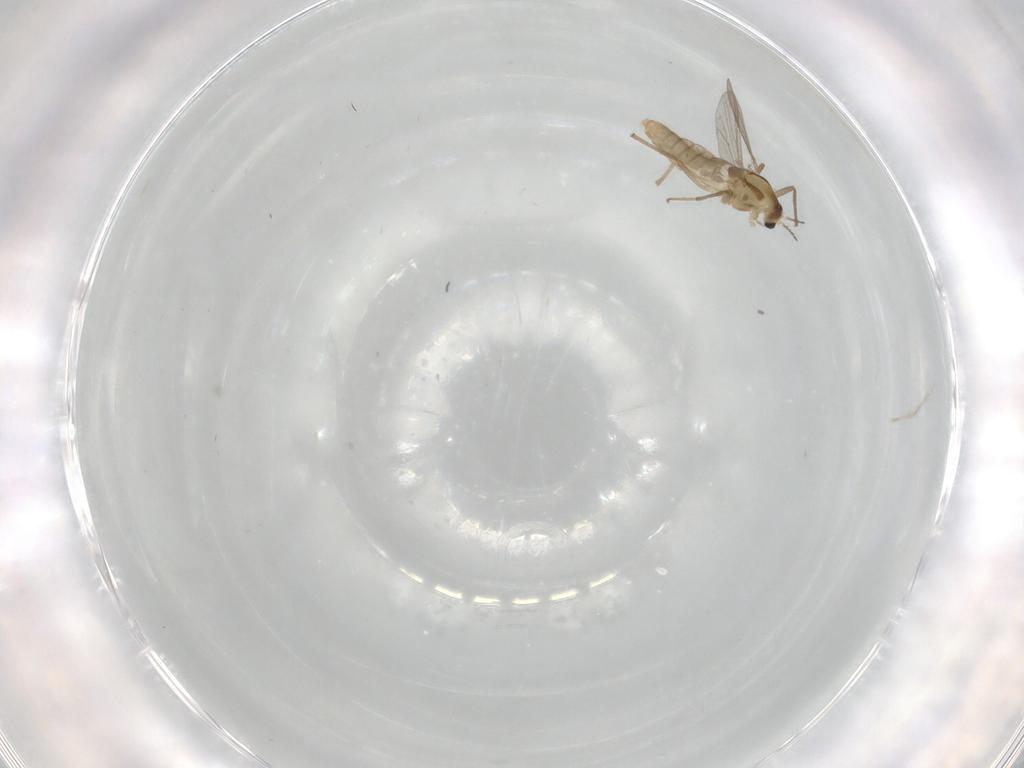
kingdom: Animalia
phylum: Arthropoda
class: Insecta
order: Diptera
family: Chironomidae
